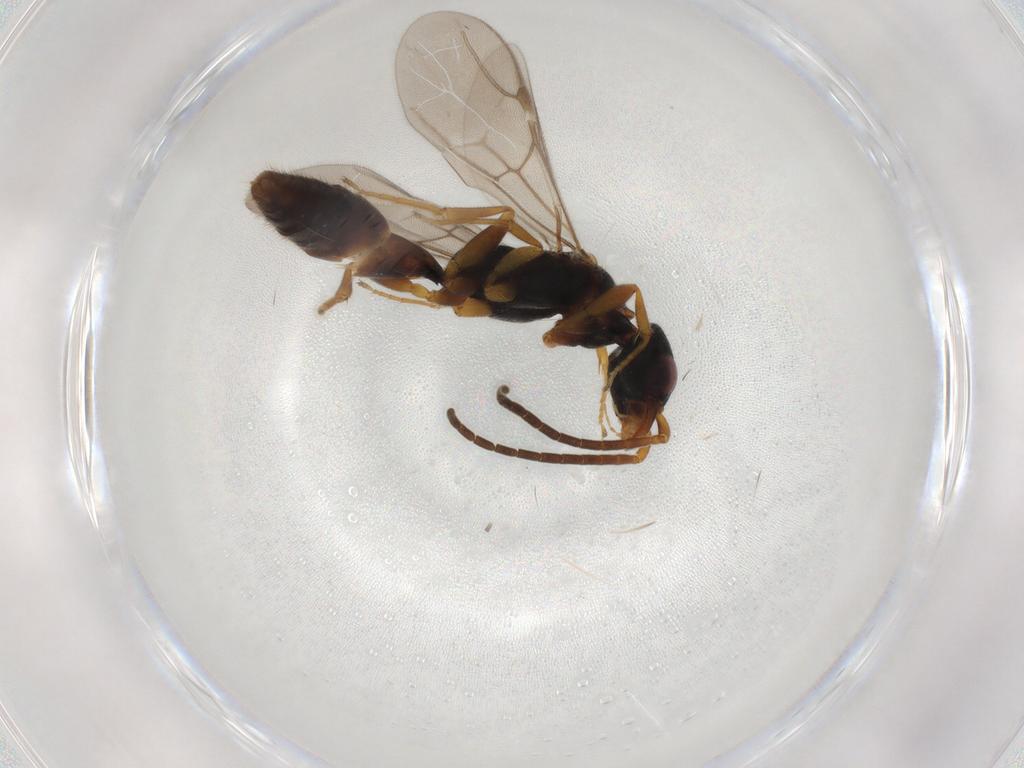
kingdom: Animalia
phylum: Arthropoda
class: Insecta
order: Hymenoptera
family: Bethylidae
